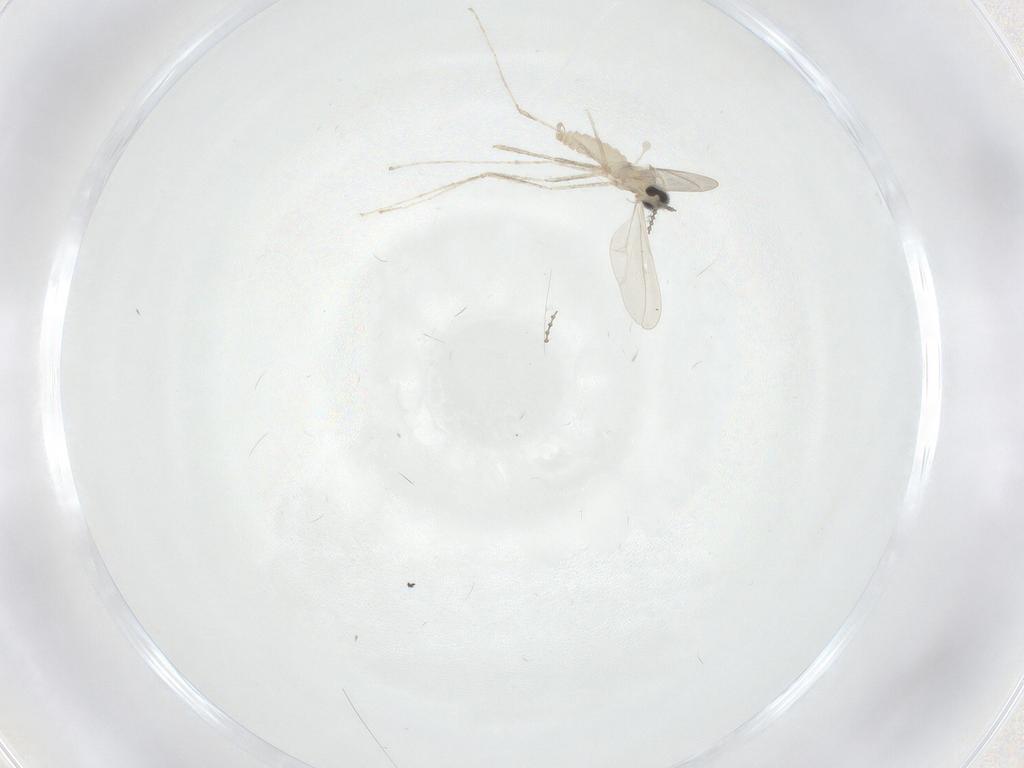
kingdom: Animalia
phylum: Arthropoda
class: Insecta
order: Diptera
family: Cecidomyiidae
